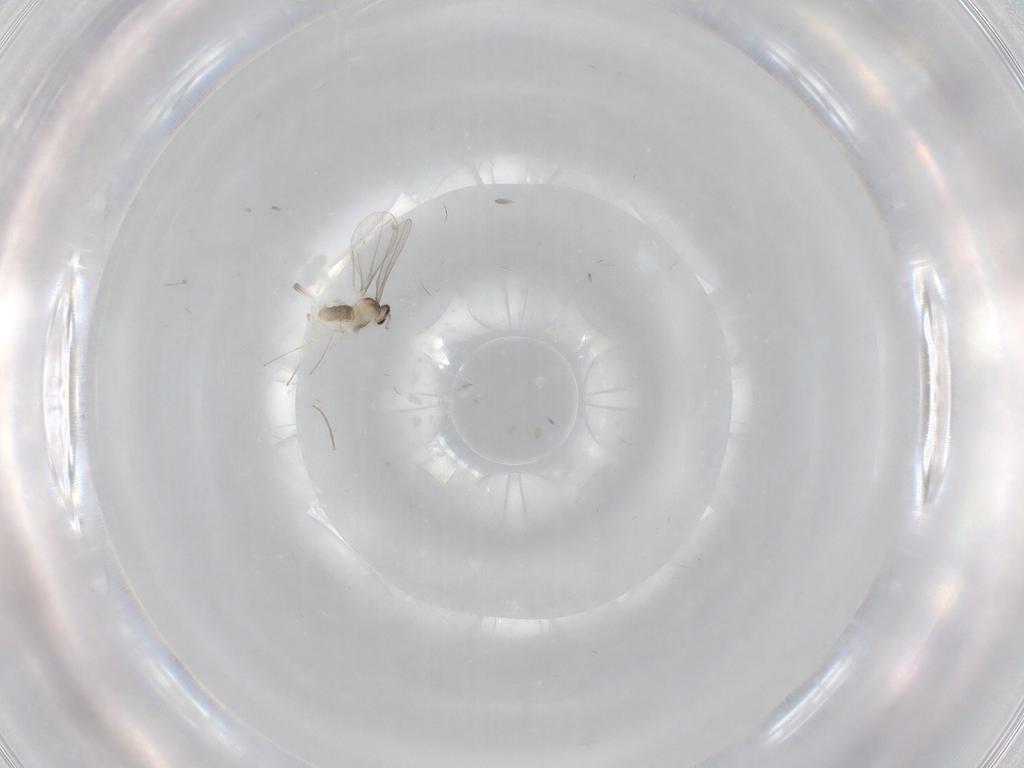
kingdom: Animalia
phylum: Arthropoda
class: Insecta
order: Diptera
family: Cecidomyiidae
